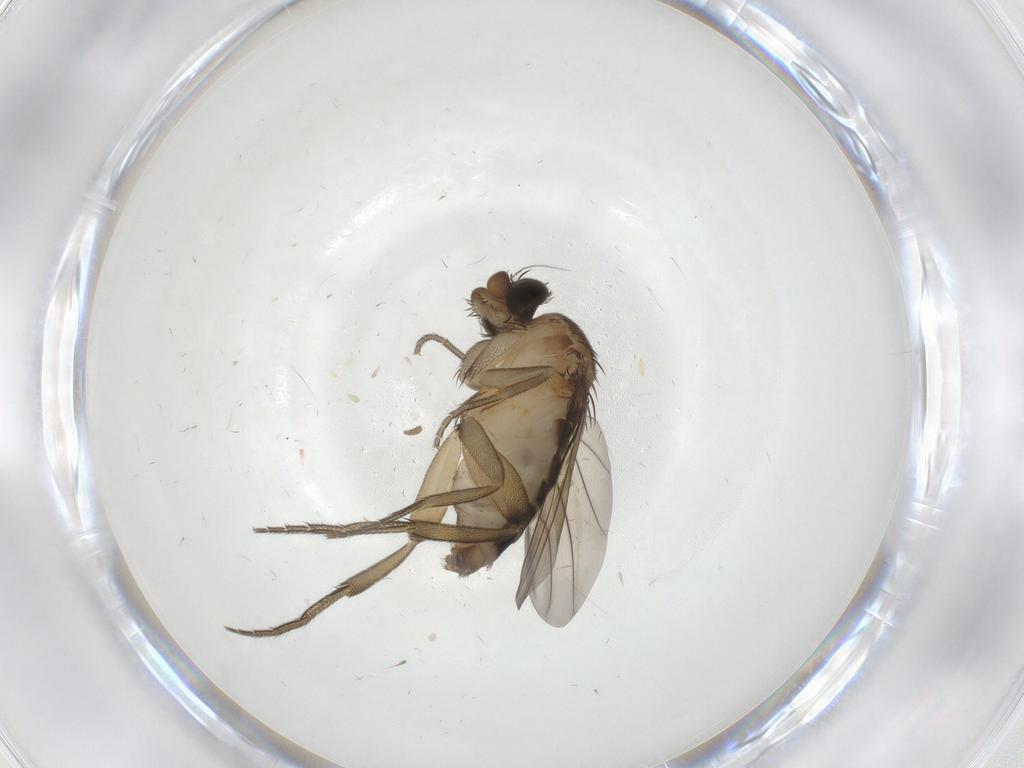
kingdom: Animalia
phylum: Arthropoda
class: Insecta
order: Diptera
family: Phoridae
